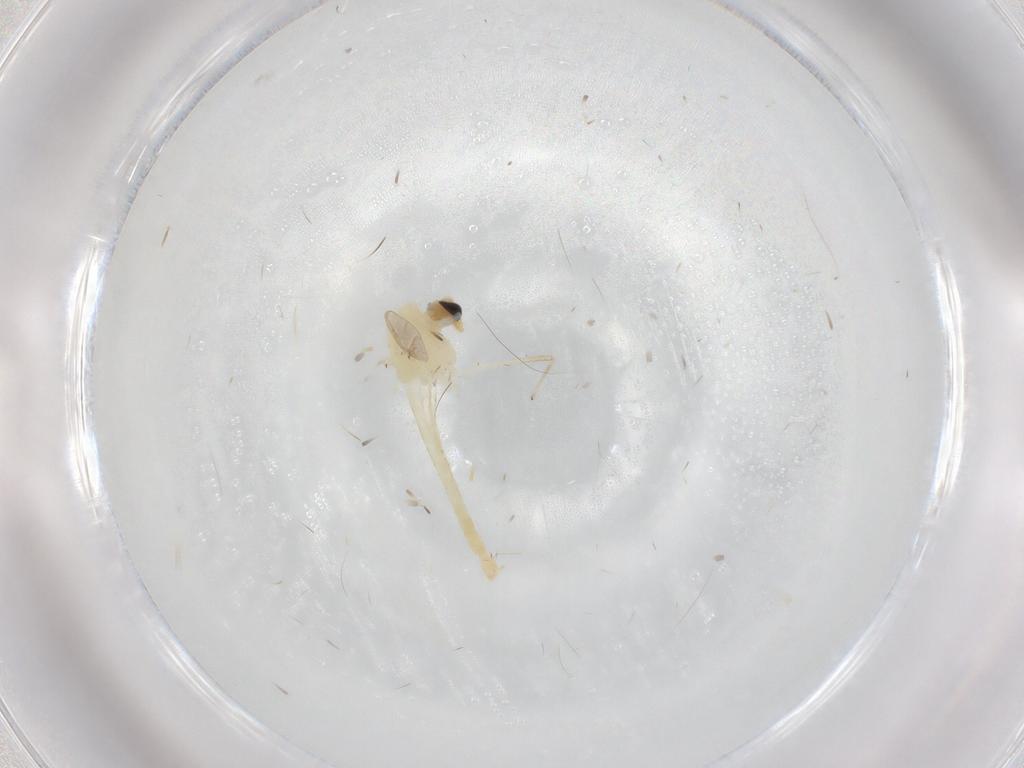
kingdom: Animalia
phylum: Arthropoda
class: Insecta
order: Diptera
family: Chironomidae
